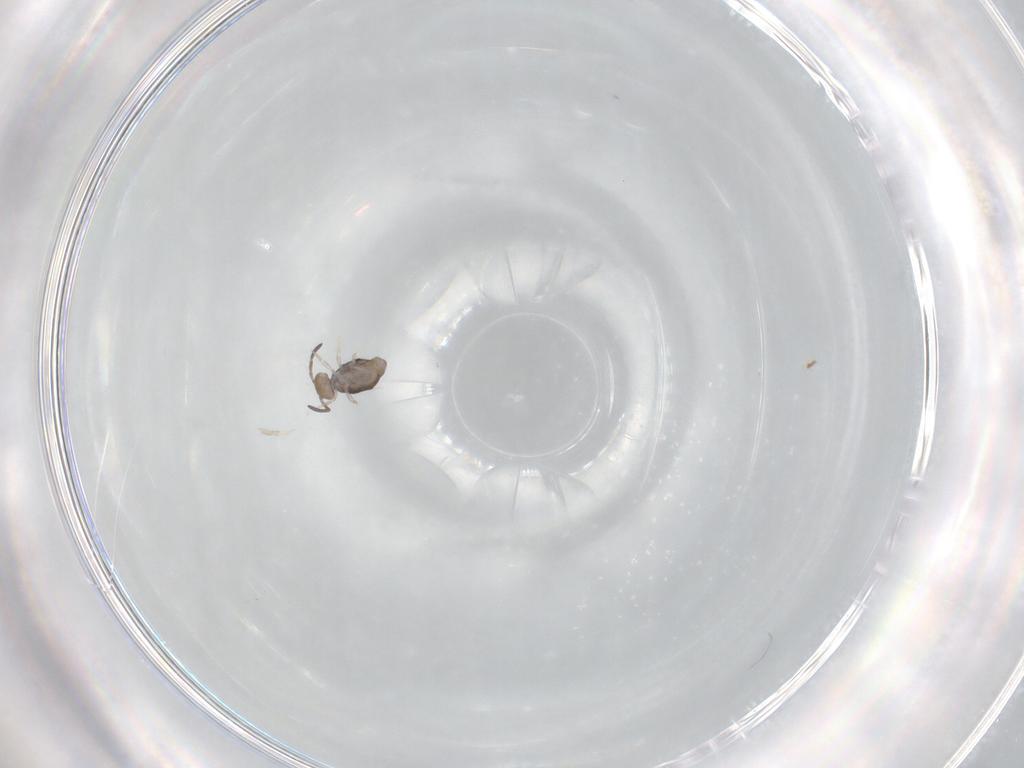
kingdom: Animalia
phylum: Arthropoda
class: Collembola
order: Symphypleona
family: Katiannidae
